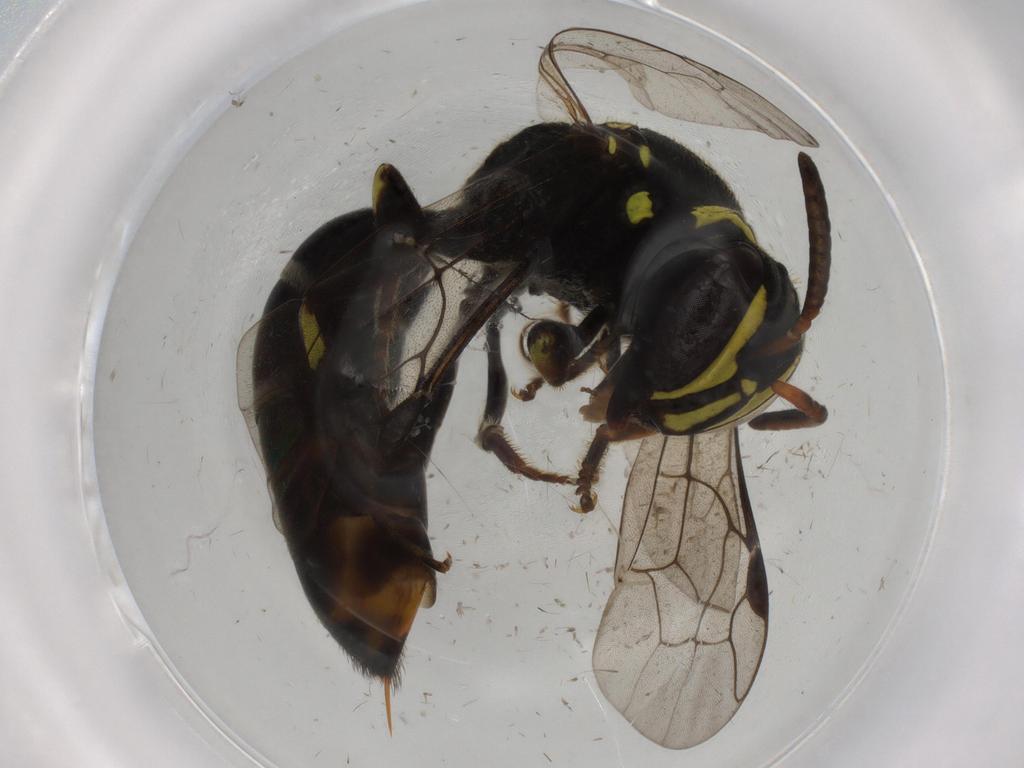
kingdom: Animalia
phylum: Arthropoda
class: Insecta
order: Hymenoptera
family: Colletidae
